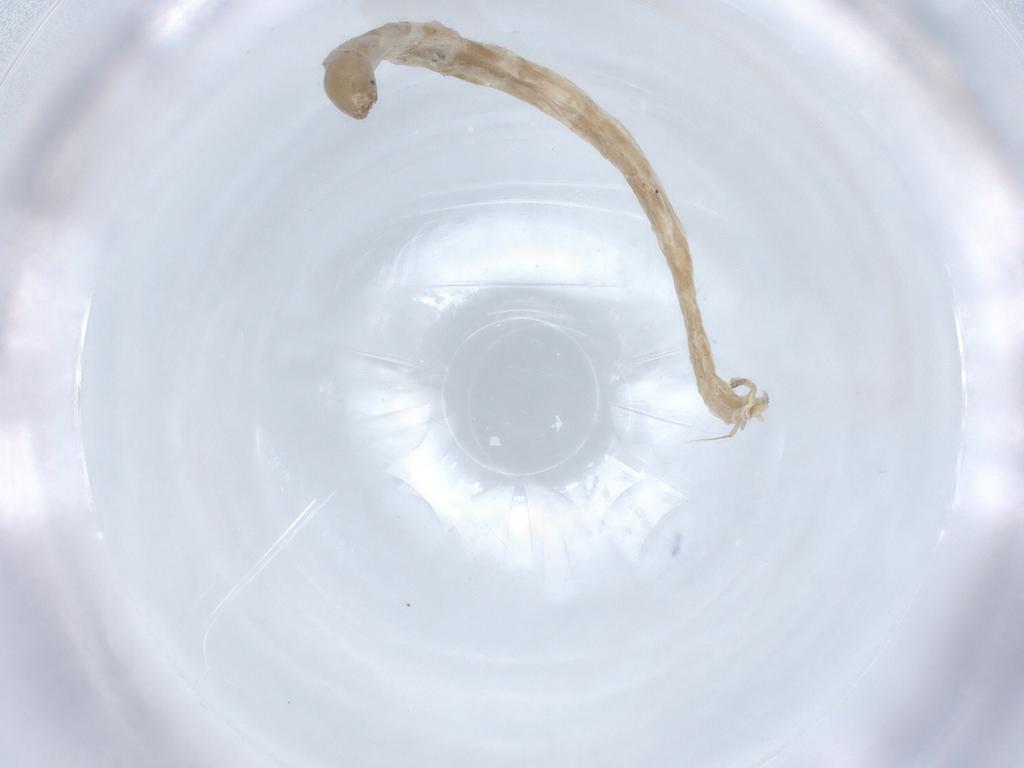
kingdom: Animalia
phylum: Arthropoda
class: Insecta
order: Diptera
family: Chironomidae
